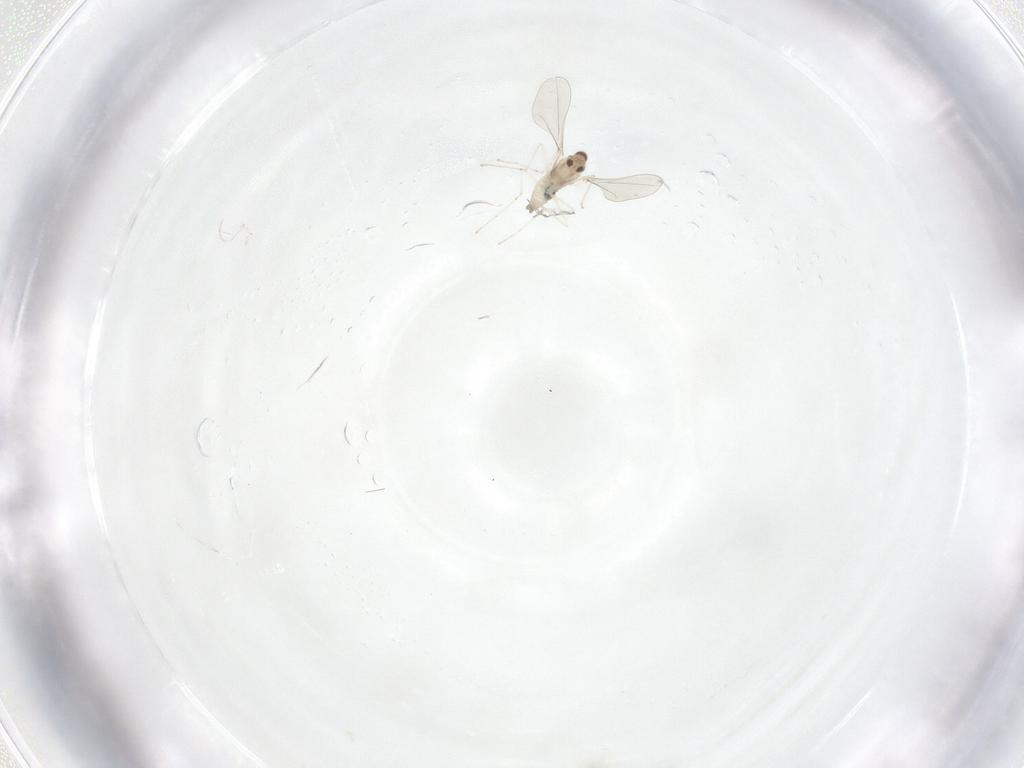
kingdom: Animalia
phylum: Arthropoda
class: Insecta
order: Diptera
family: Cecidomyiidae
